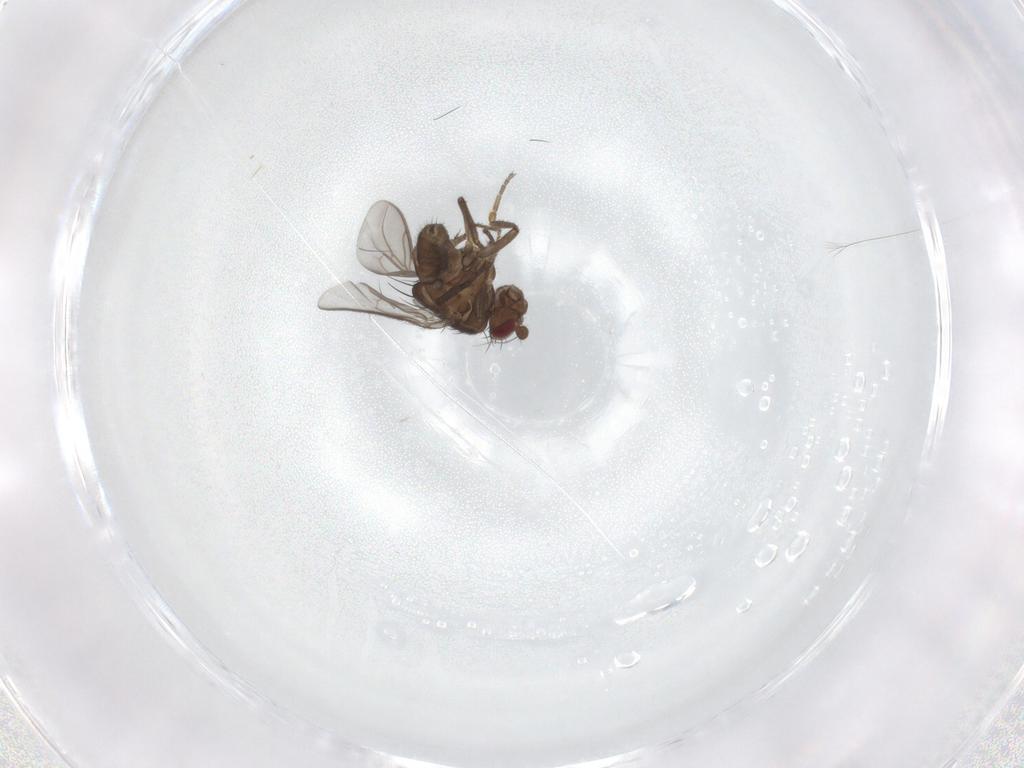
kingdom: Animalia
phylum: Arthropoda
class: Insecta
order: Diptera
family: Sphaeroceridae
